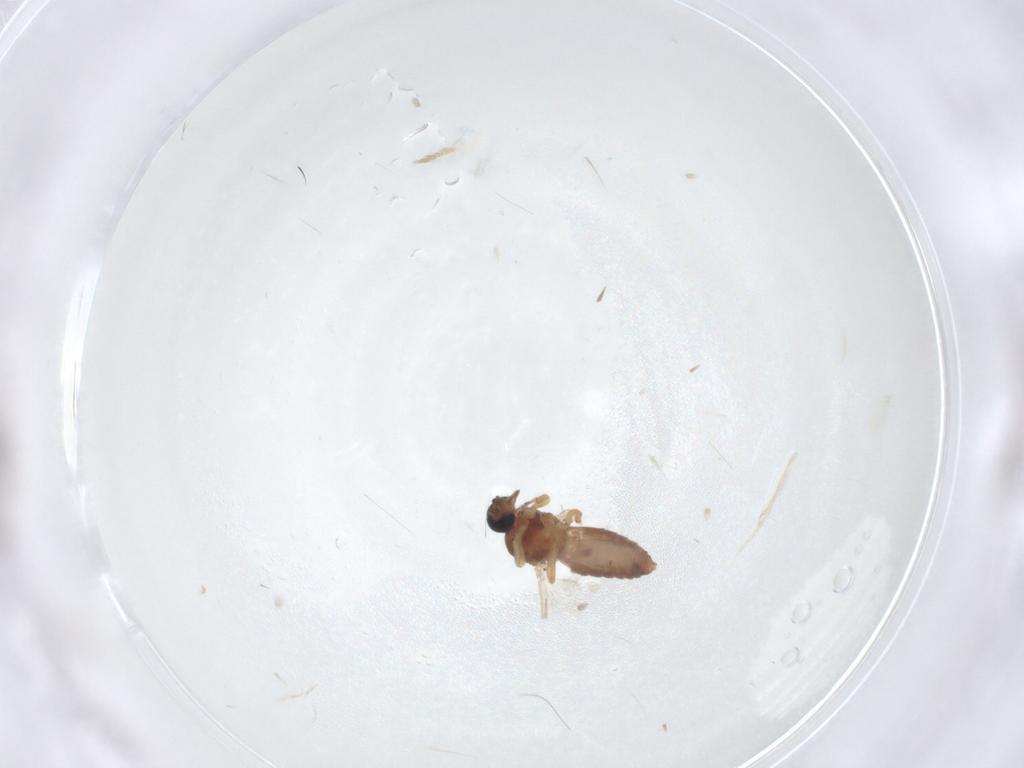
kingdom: Animalia
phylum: Arthropoda
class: Insecta
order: Diptera
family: Ceratopogonidae
